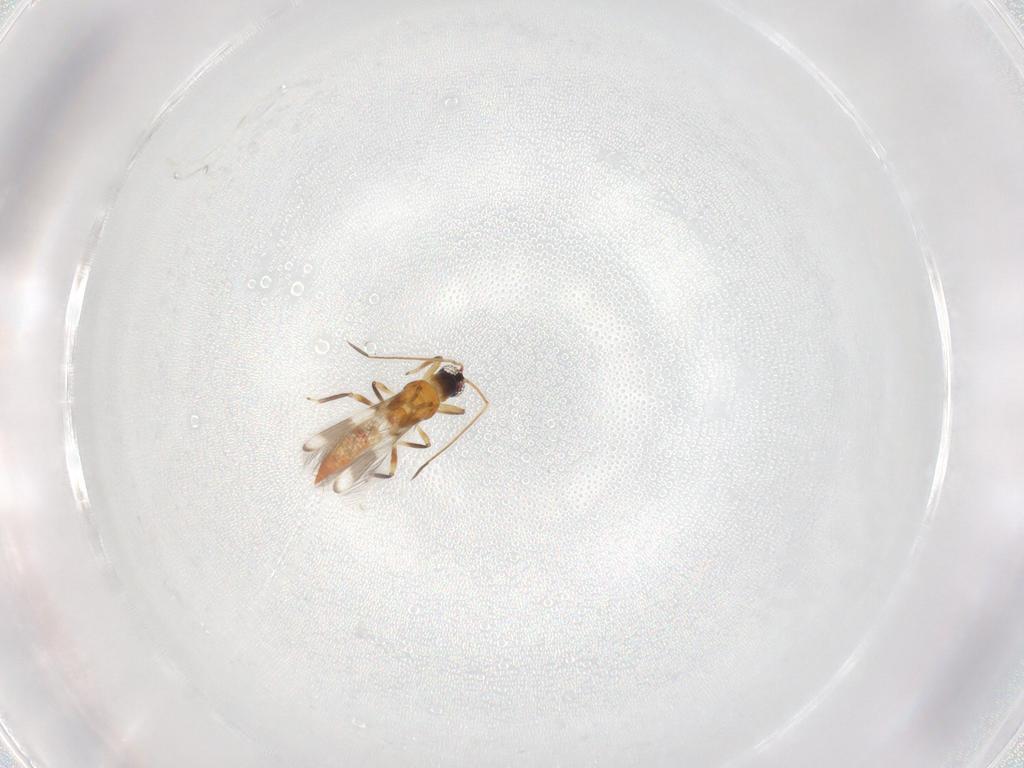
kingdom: Animalia
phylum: Arthropoda
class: Insecta
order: Thysanoptera
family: Aeolothripidae
